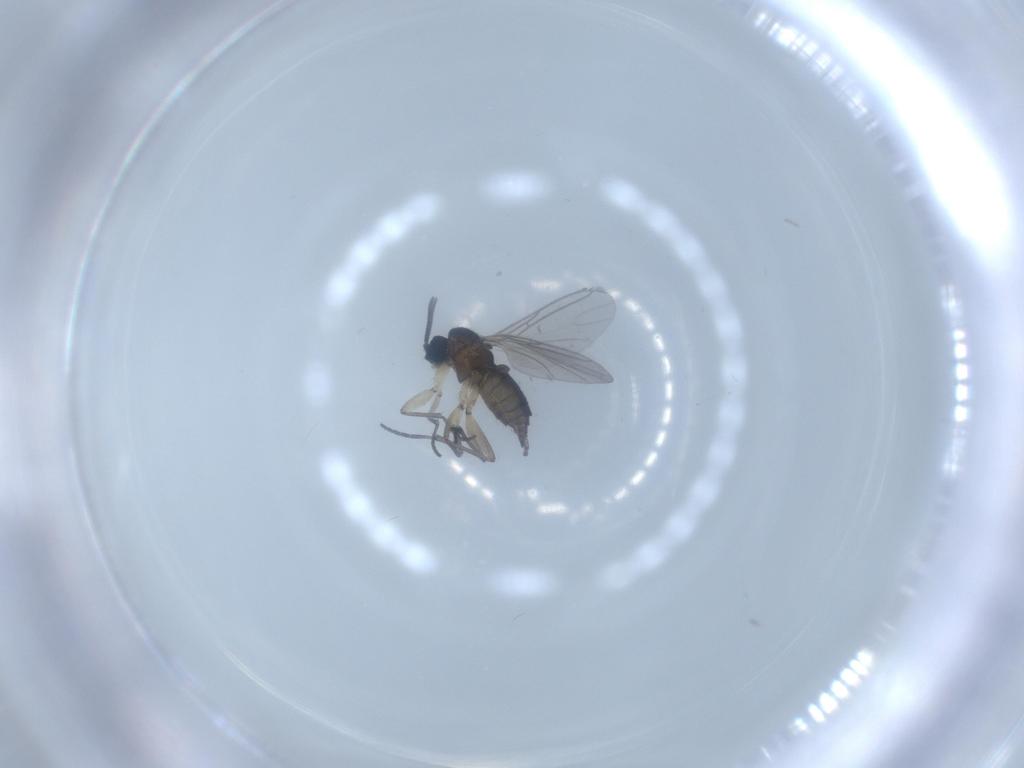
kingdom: Animalia
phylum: Arthropoda
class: Insecta
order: Diptera
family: Sciaridae
